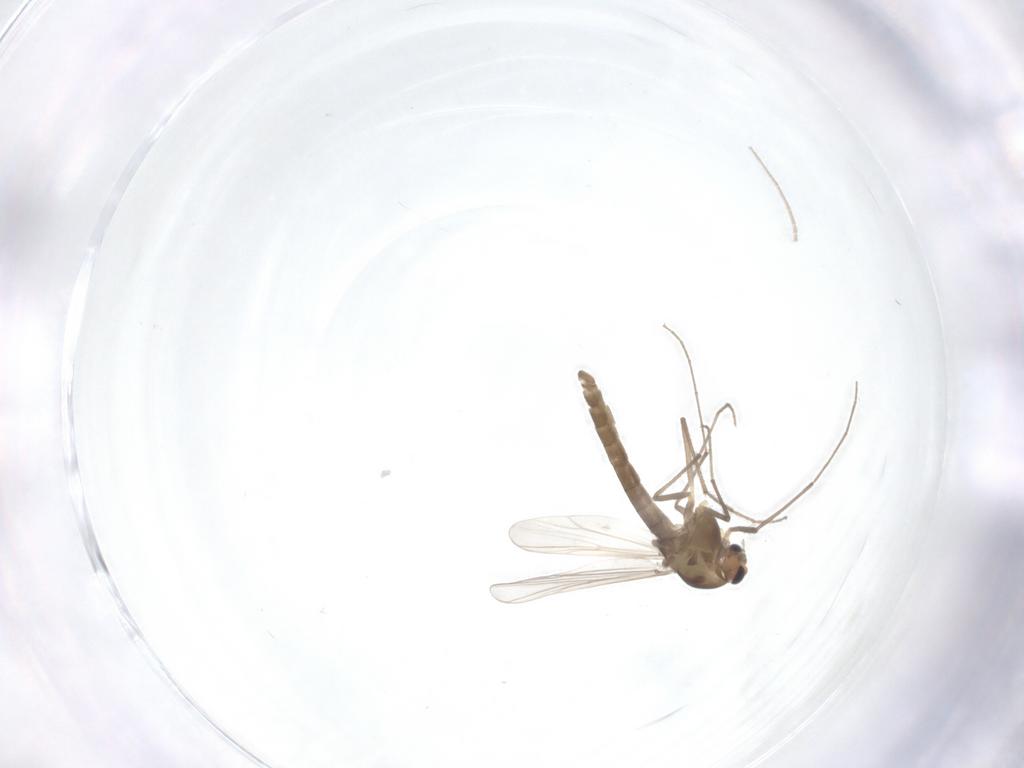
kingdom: Animalia
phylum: Arthropoda
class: Insecta
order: Diptera
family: Chironomidae
